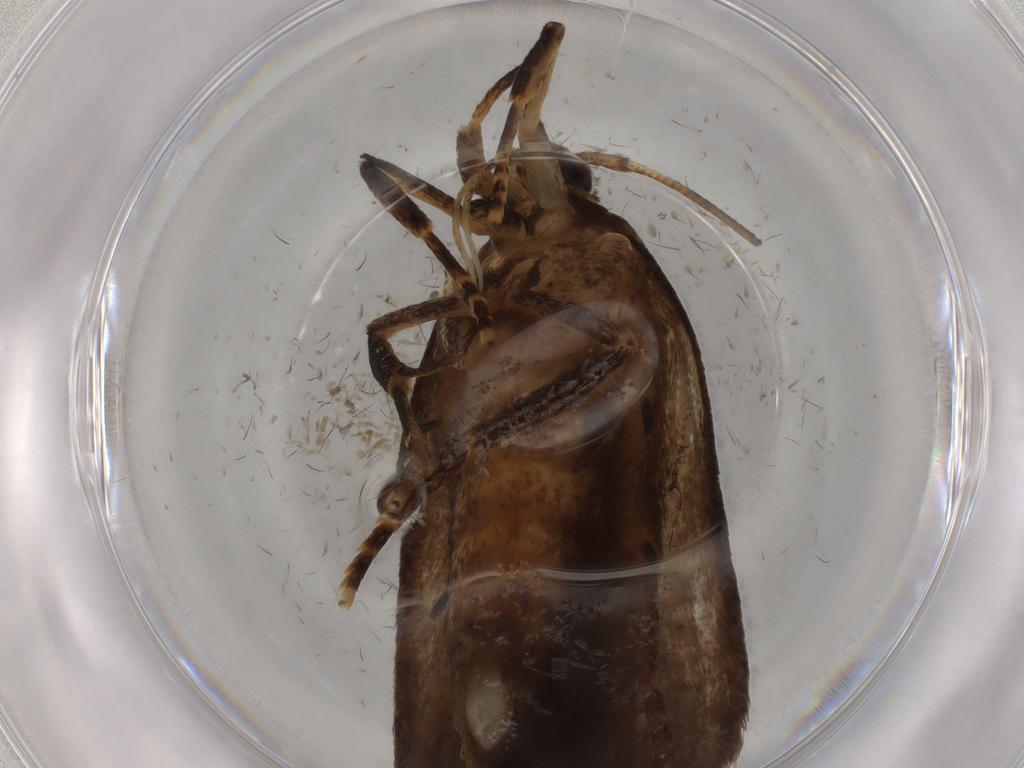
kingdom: Animalia
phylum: Arthropoda
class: Insecta
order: Lepidoptera
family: Autostichidae
